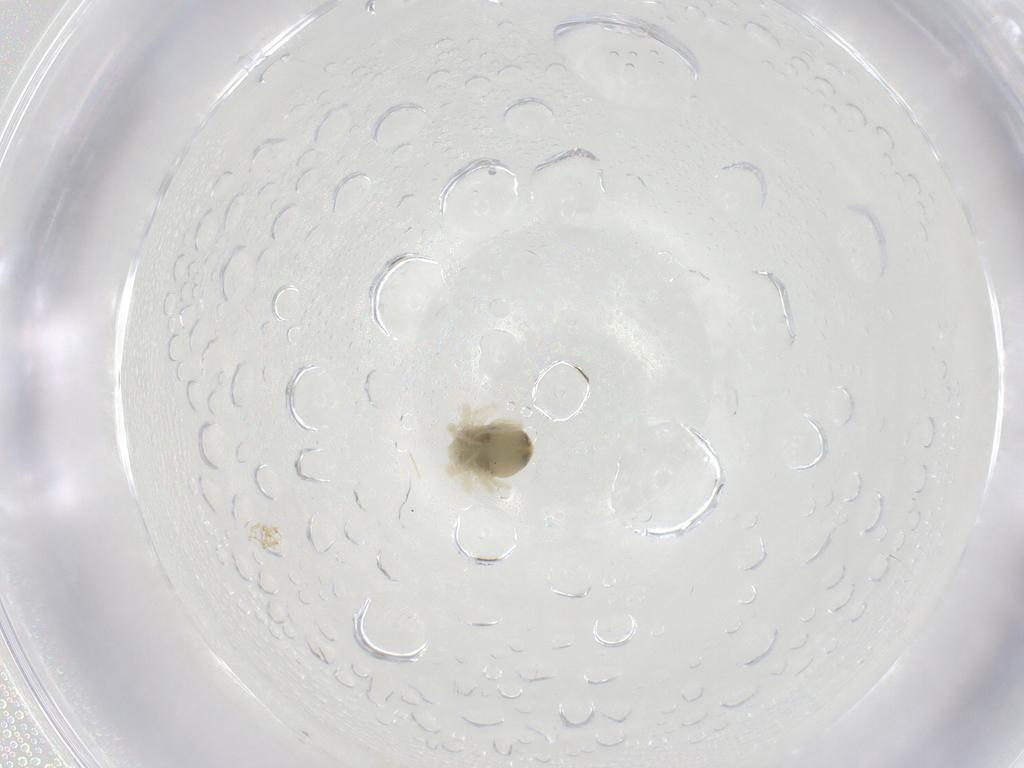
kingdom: Animalia
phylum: Arthropoda
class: Arachnida
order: Trombidiformes
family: Anystidae
